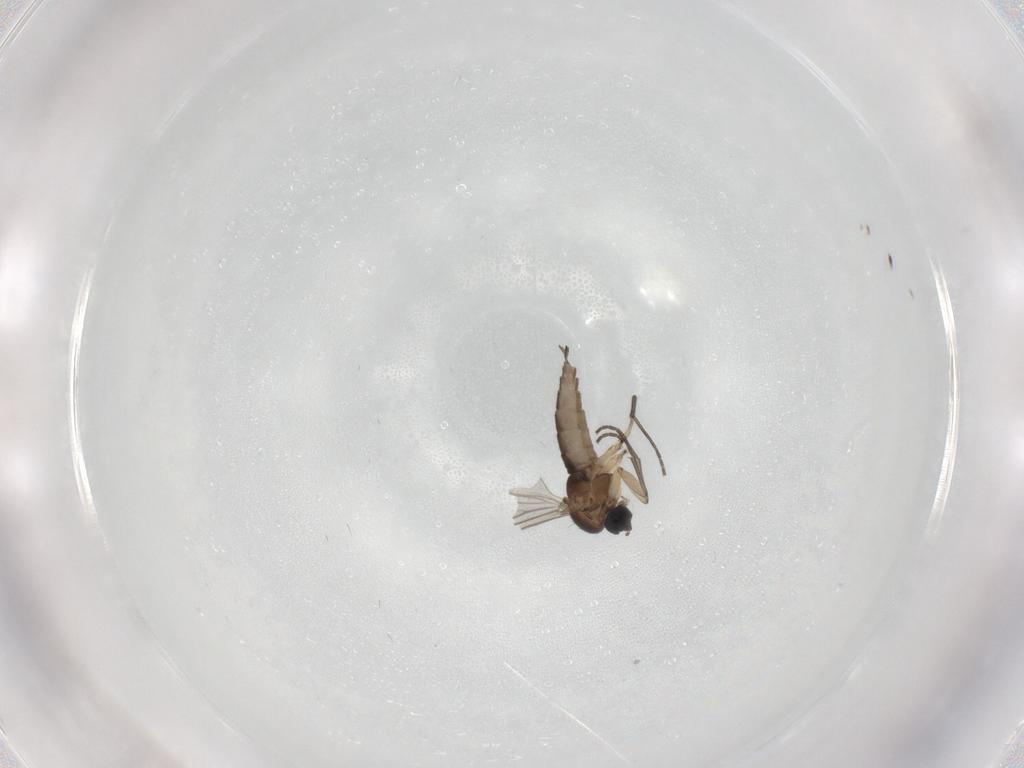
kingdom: Animalia
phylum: Arthropoda
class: Insecta
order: Diptera
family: Sciaridae
